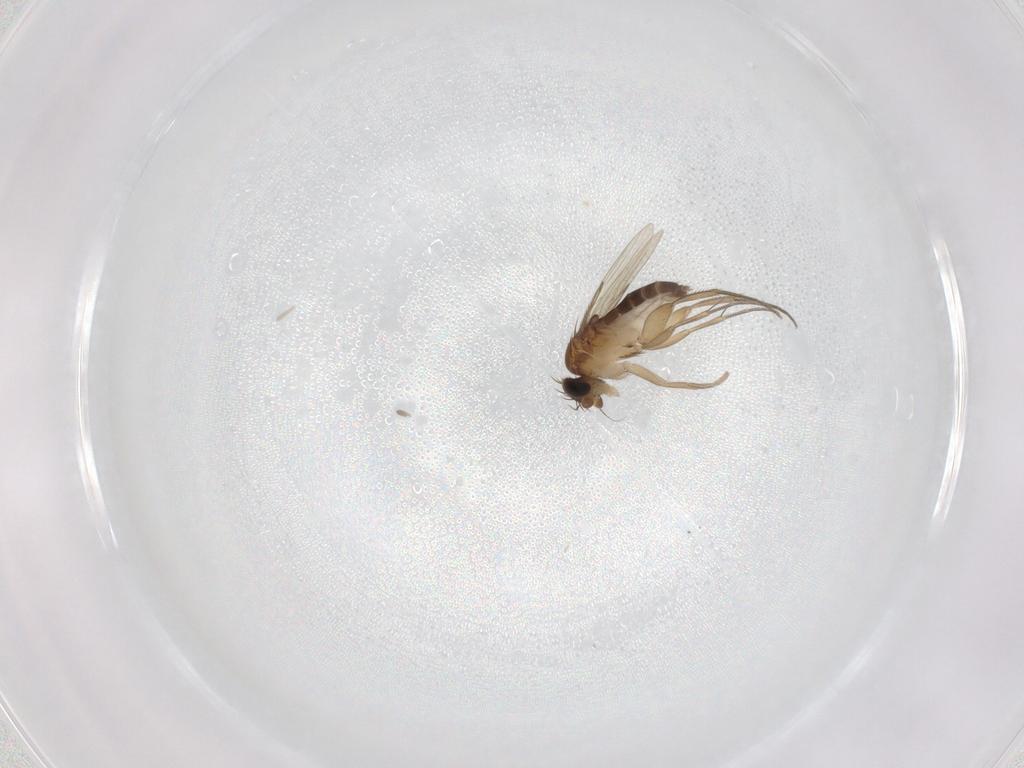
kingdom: Animalia
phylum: Arthropoda
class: Insecta
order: Diptera
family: Phoridae
